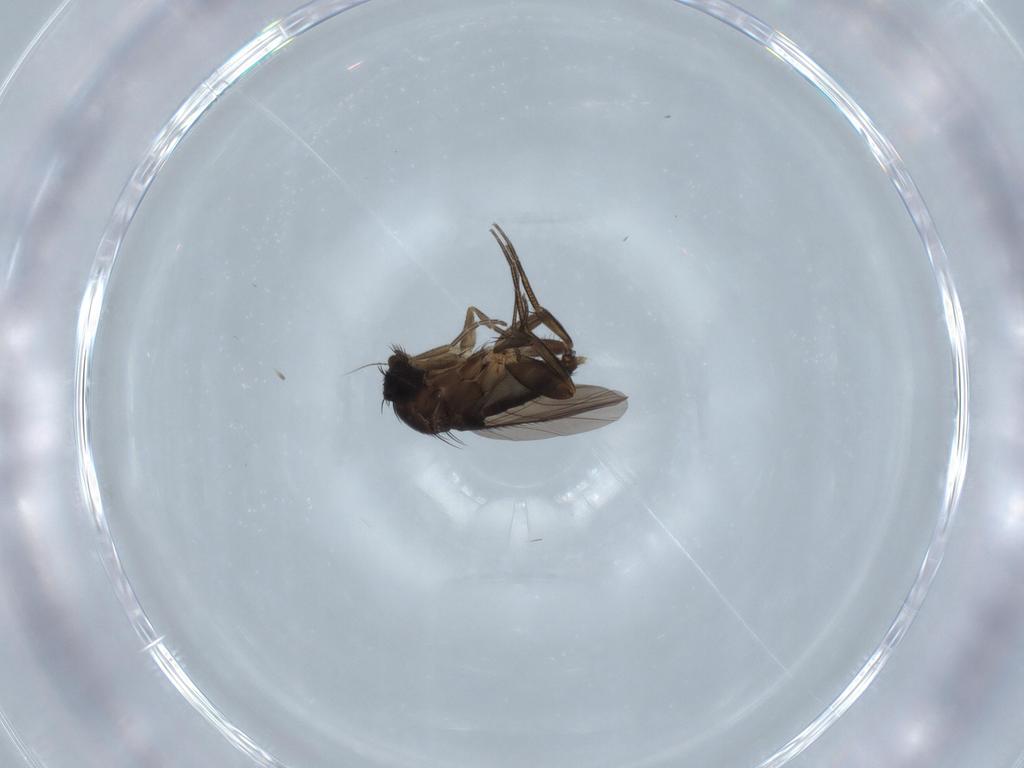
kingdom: Animalia
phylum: Arthropoda
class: Insecta
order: Diptera
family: Phoridae
